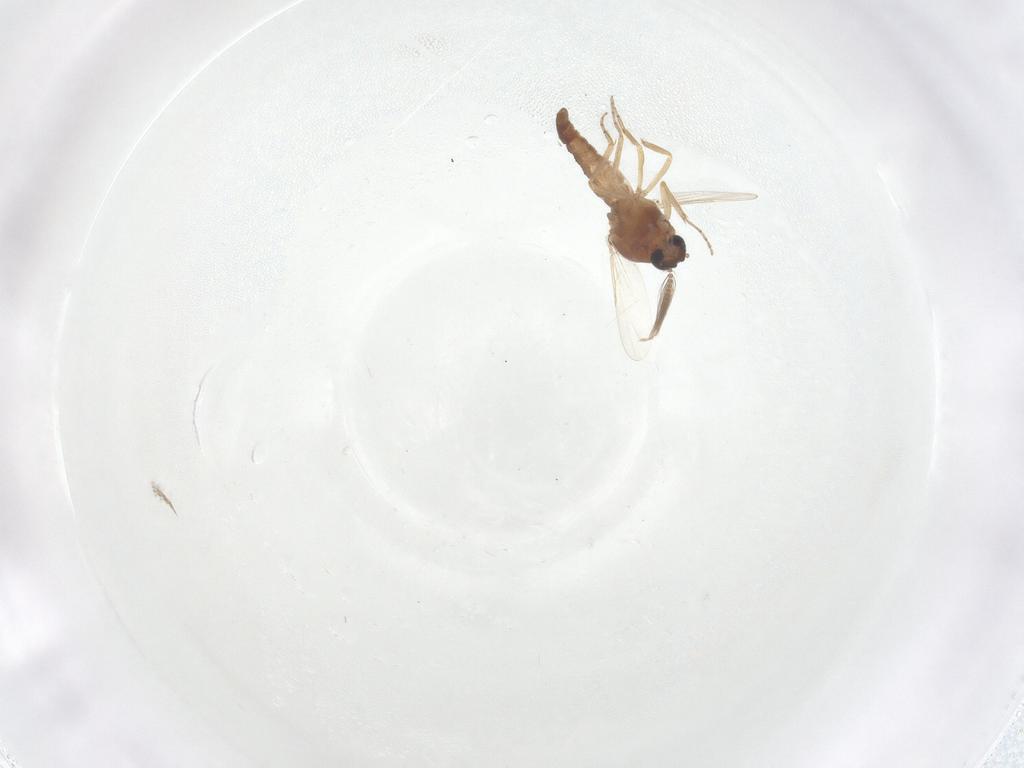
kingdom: Animalia
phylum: Arthropoda
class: Insecta
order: Diptera
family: Ceratopogonidae
